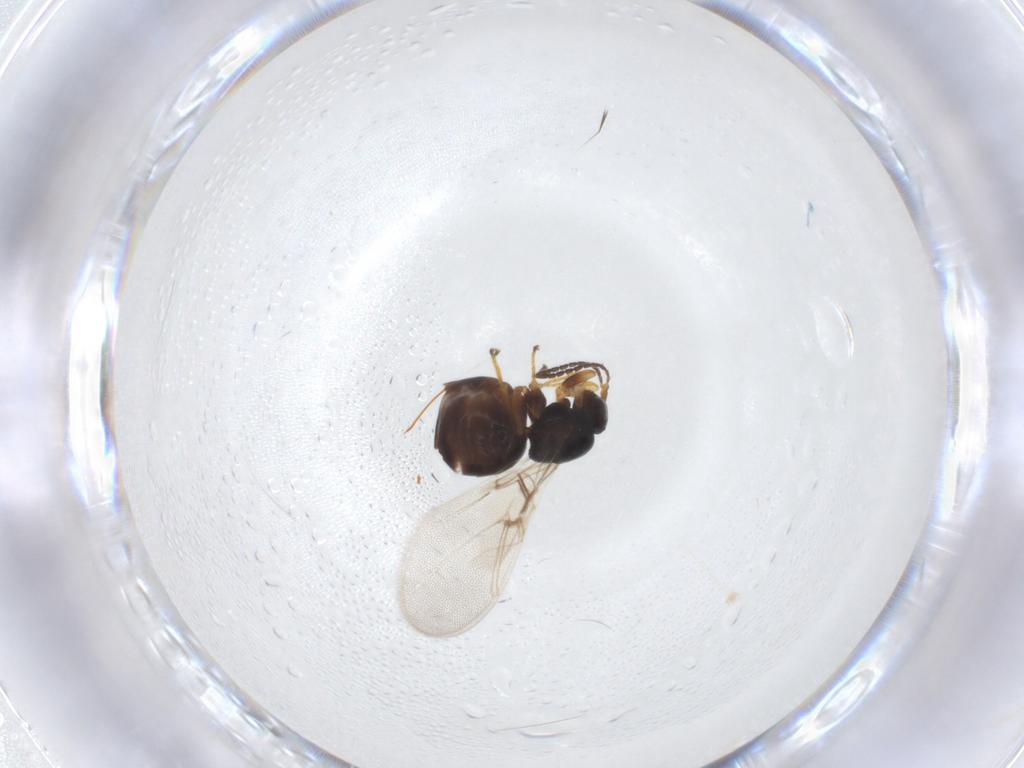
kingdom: Animalia
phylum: Arthropoda
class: Insecta
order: Hymenoptera
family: Cynipidae
